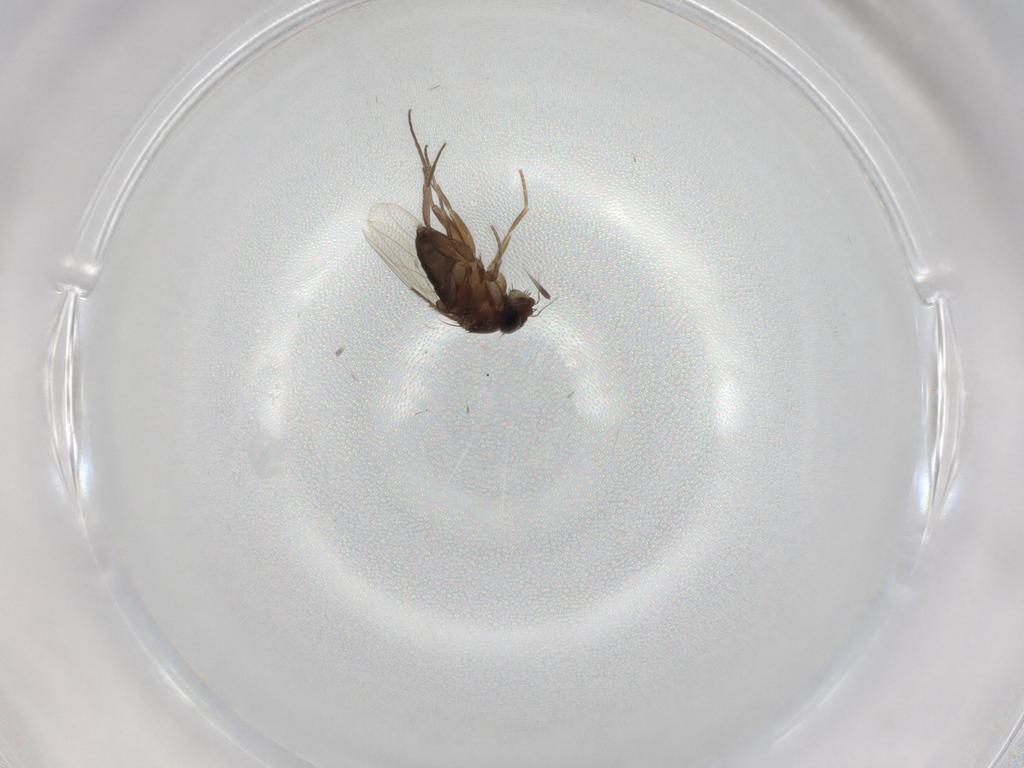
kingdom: Animalia
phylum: Arthropoda
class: Insecta
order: Diptera
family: Phoridae
